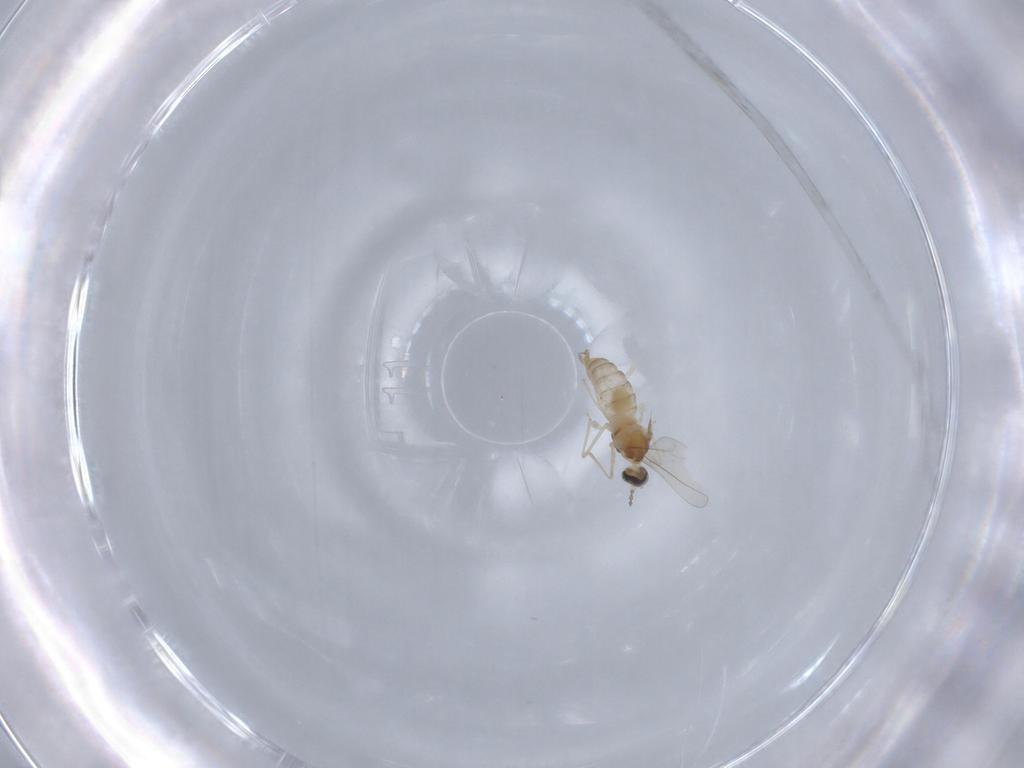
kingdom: Animalia
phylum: Arthropoda
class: Insecta
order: Diptera
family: Cecidomyiidae
